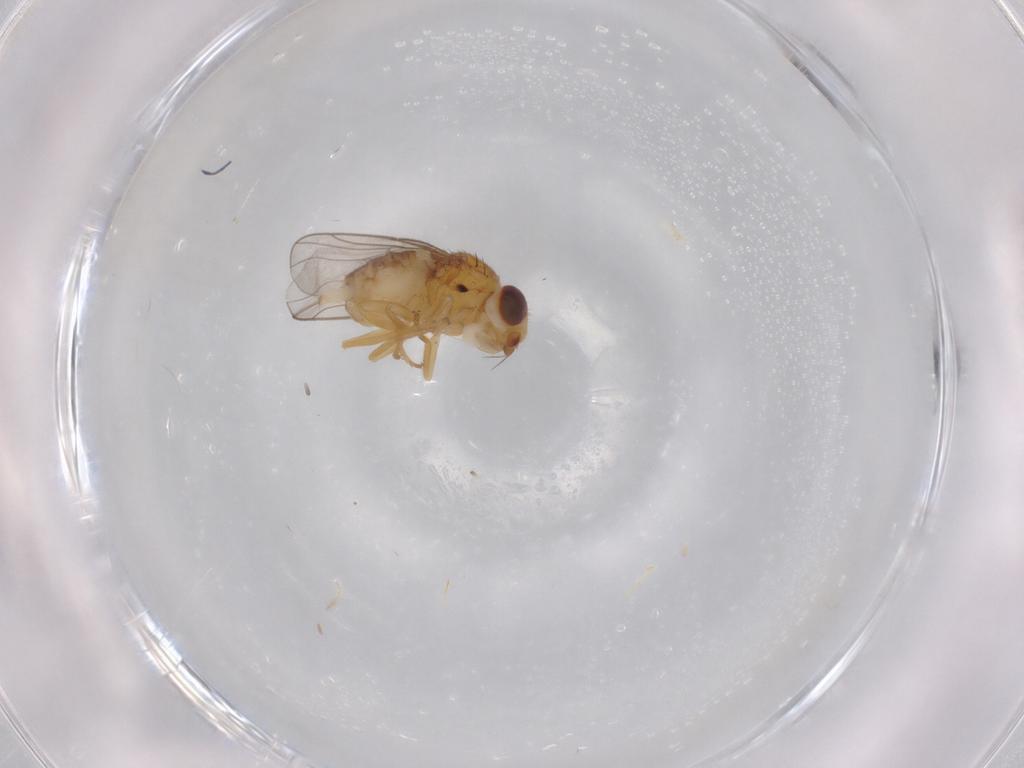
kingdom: Animalia
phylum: Arthropoda
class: Insecta
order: Diptera
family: Chloropidae
